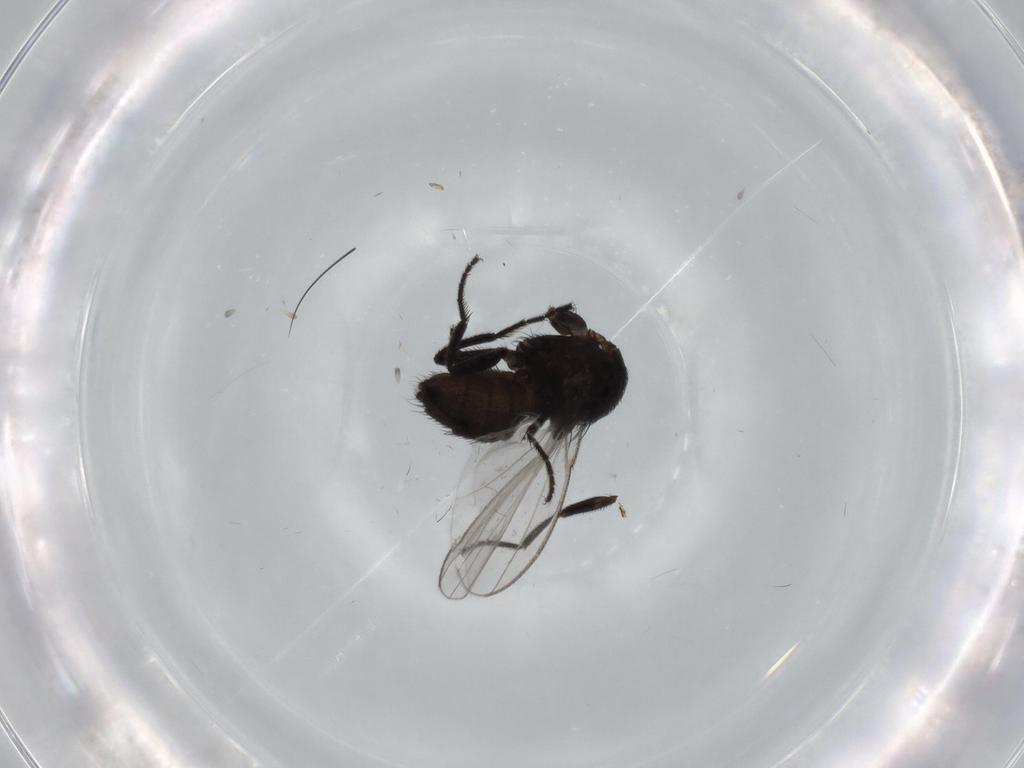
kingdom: Animalia
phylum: Arthropoda
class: Insecta
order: Diptera
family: Milichiidae
